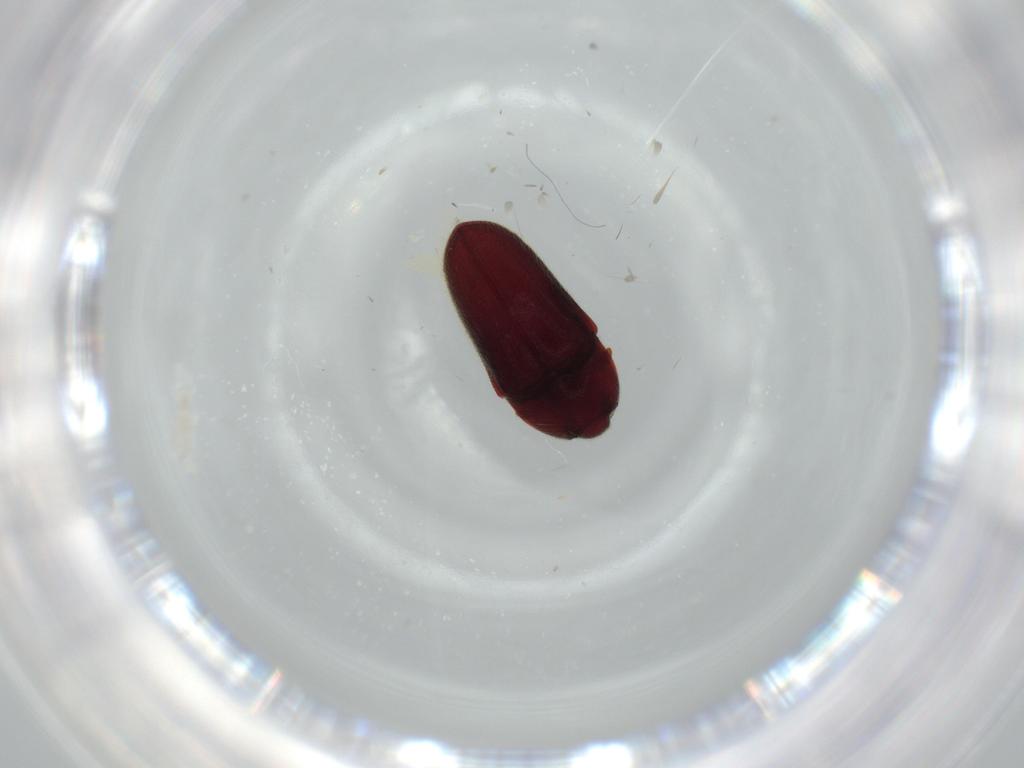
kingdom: Animalia
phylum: Arthropoda
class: Insecta
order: Coleoptera
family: Throscidae
